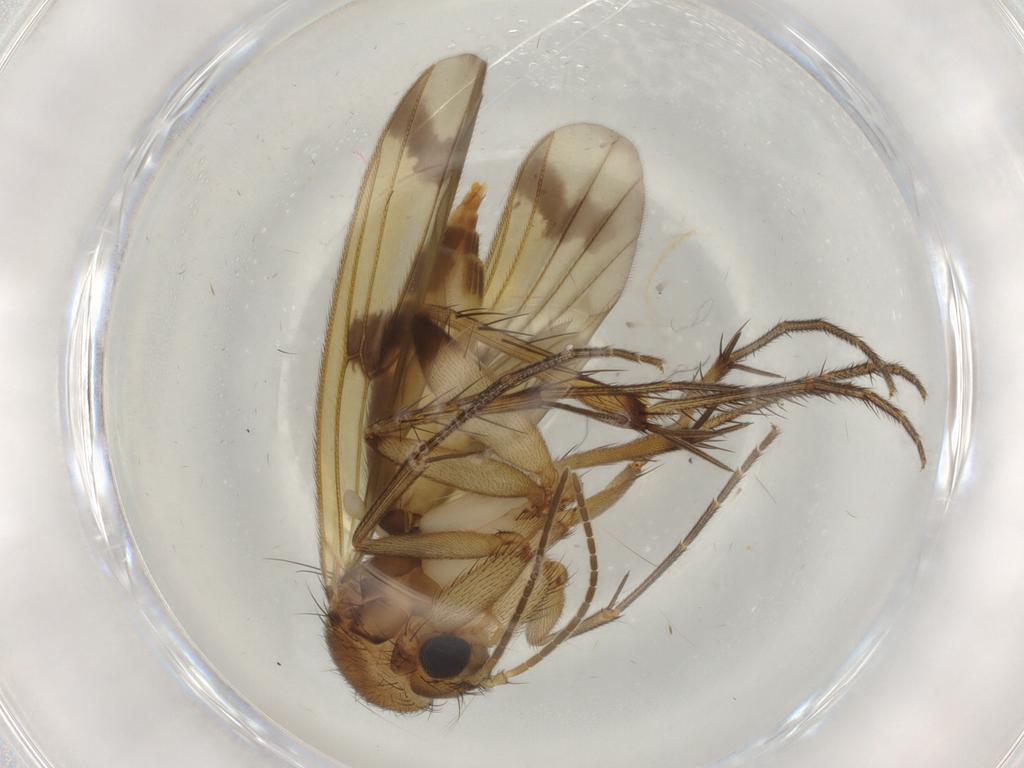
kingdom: Animalia
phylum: Arthropoda
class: Insecta
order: Diptera
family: Mycetophilidae
